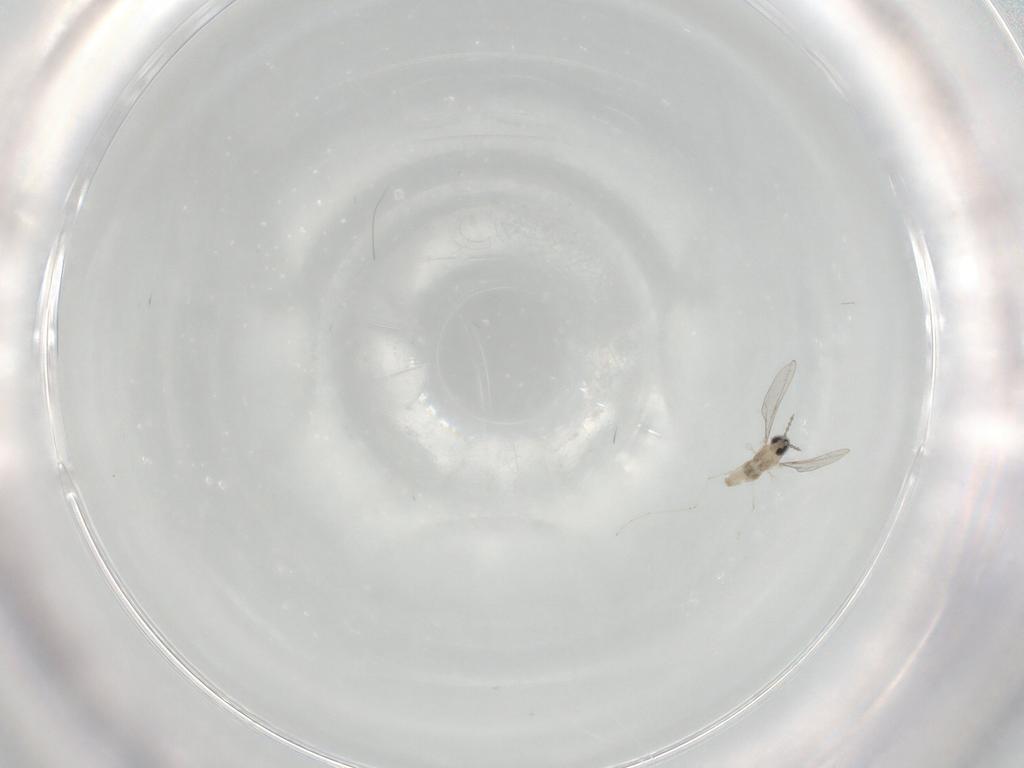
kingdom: Animalia
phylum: Arthropoda
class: Insecta
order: Diptera
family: Cecidomyiidae
